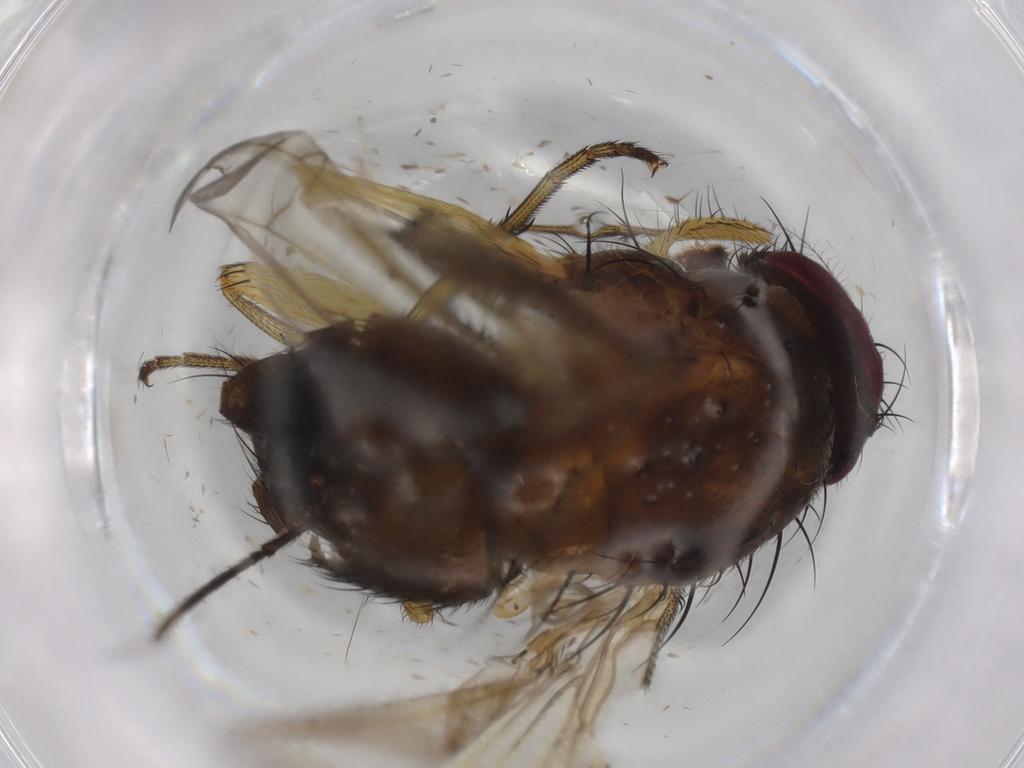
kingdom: Animalia
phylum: Arthropoda
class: Insecta
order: Diptera
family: Muscidae
